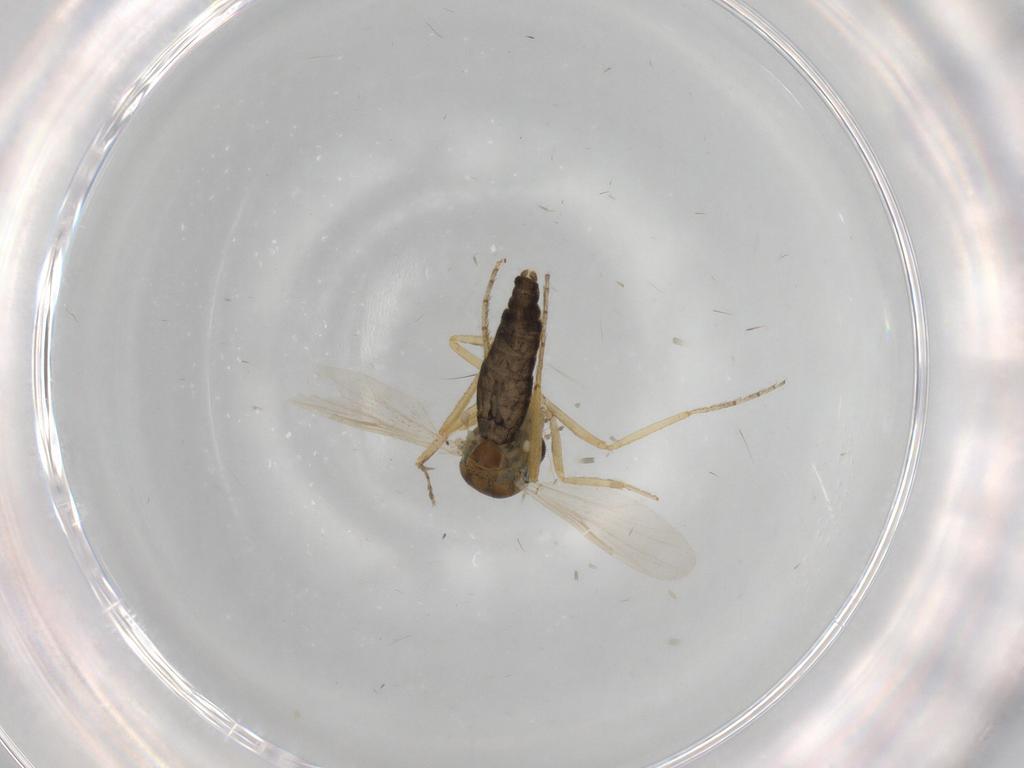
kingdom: Animalia
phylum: Arthropoda
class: Insecta
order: Diptera
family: Ceratopogonidae
